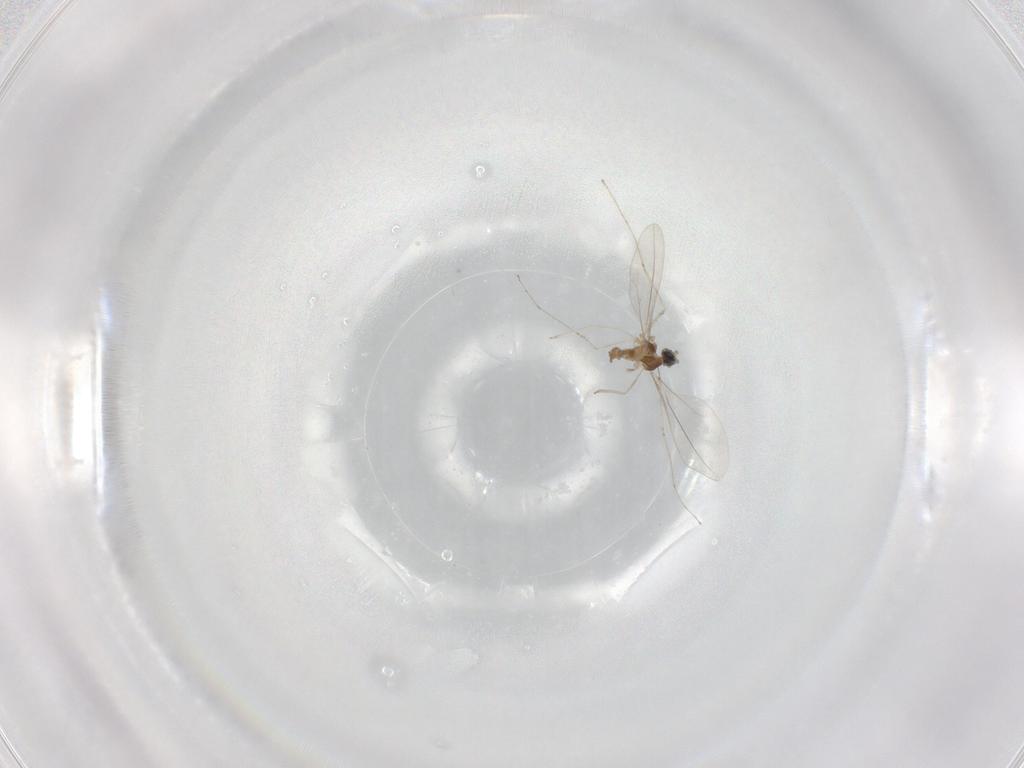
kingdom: Animalia
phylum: Arthropoda
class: Insecta
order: Diptera
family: Cecidomyiidae
